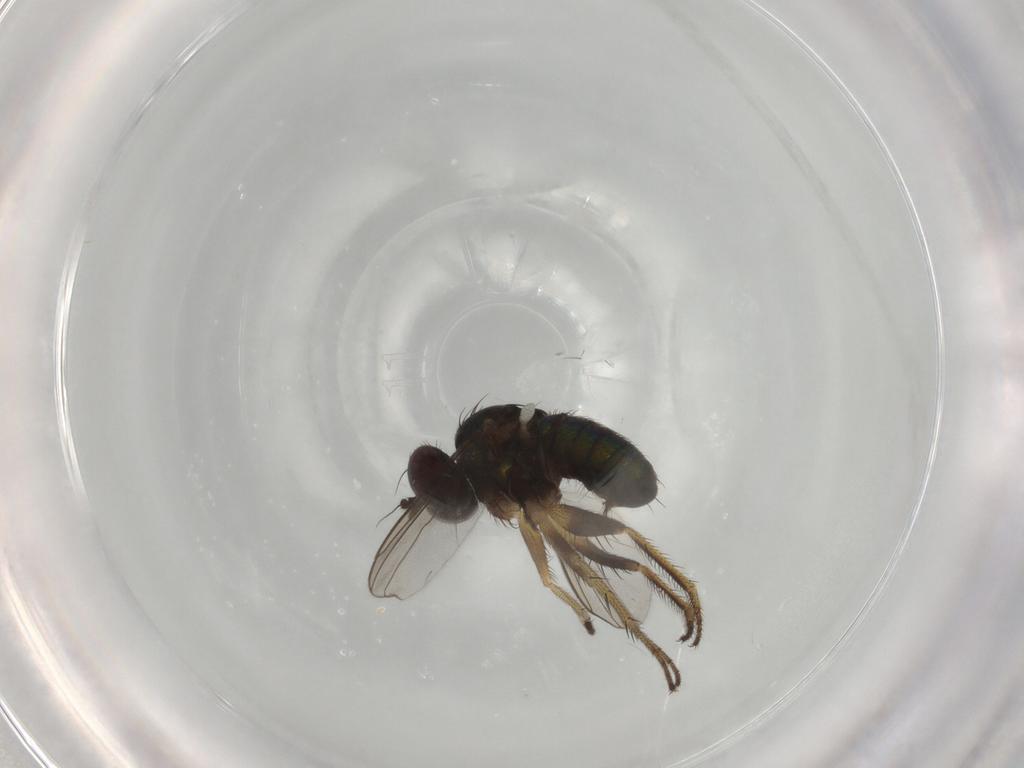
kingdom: Animalia
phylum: Arthropoda
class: Insecta
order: Diptera
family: Dolichopodidae
